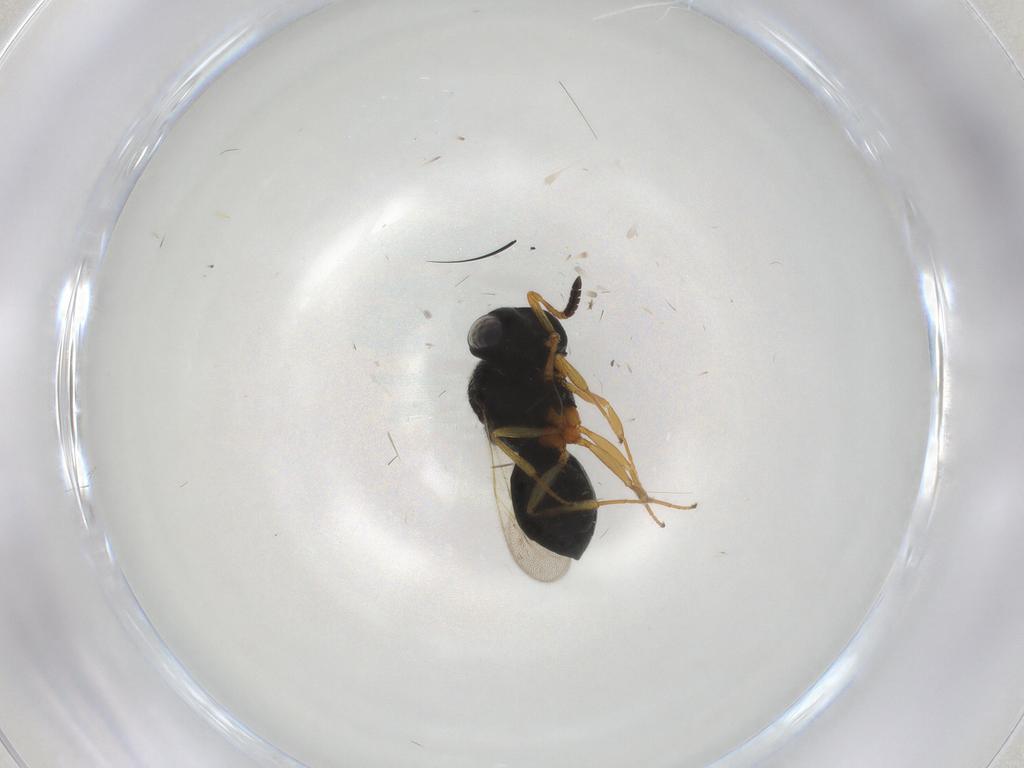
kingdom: Animalia
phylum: Arthropoda
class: Insecta
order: Hymenoptera
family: Scelionidae
